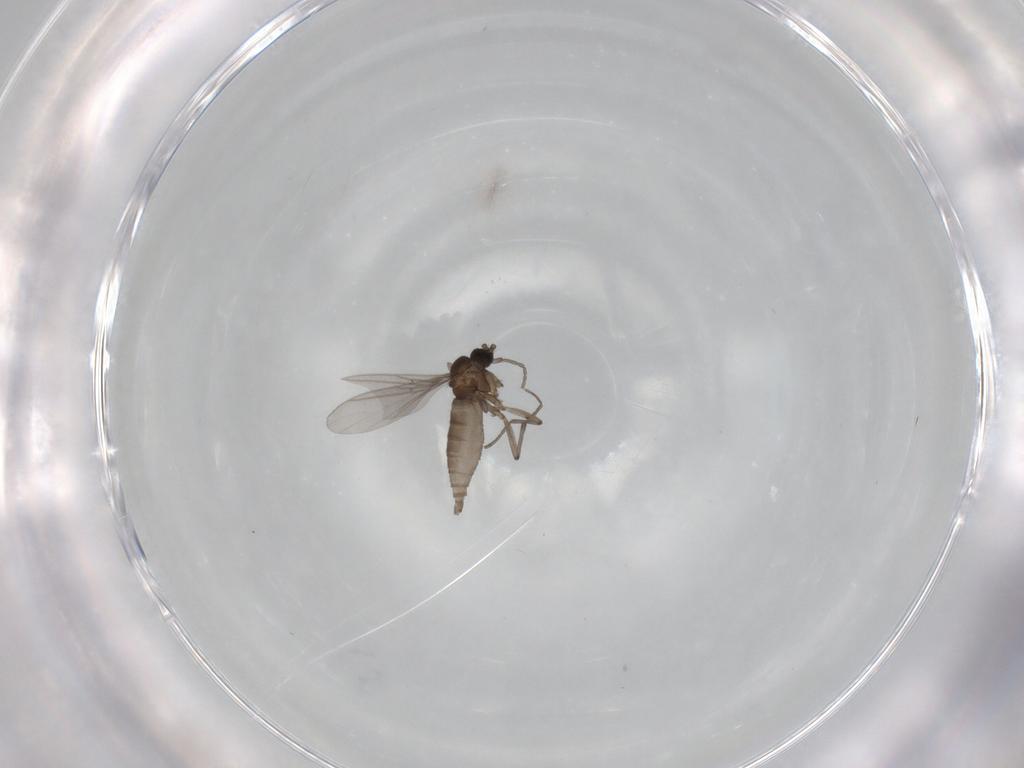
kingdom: Animalia
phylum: Arthropoda
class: Insecta
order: Diptera
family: Sciaridae
